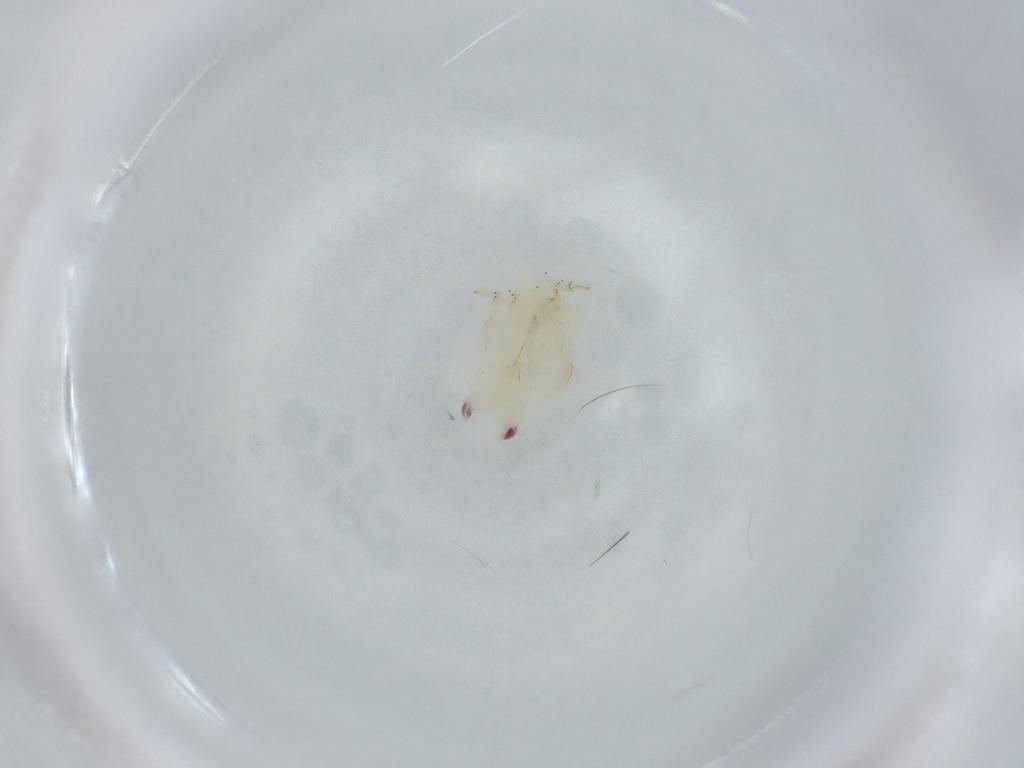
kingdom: Animalia
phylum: Arthropoda
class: Insecta
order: Hemiptera
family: Flatidae
